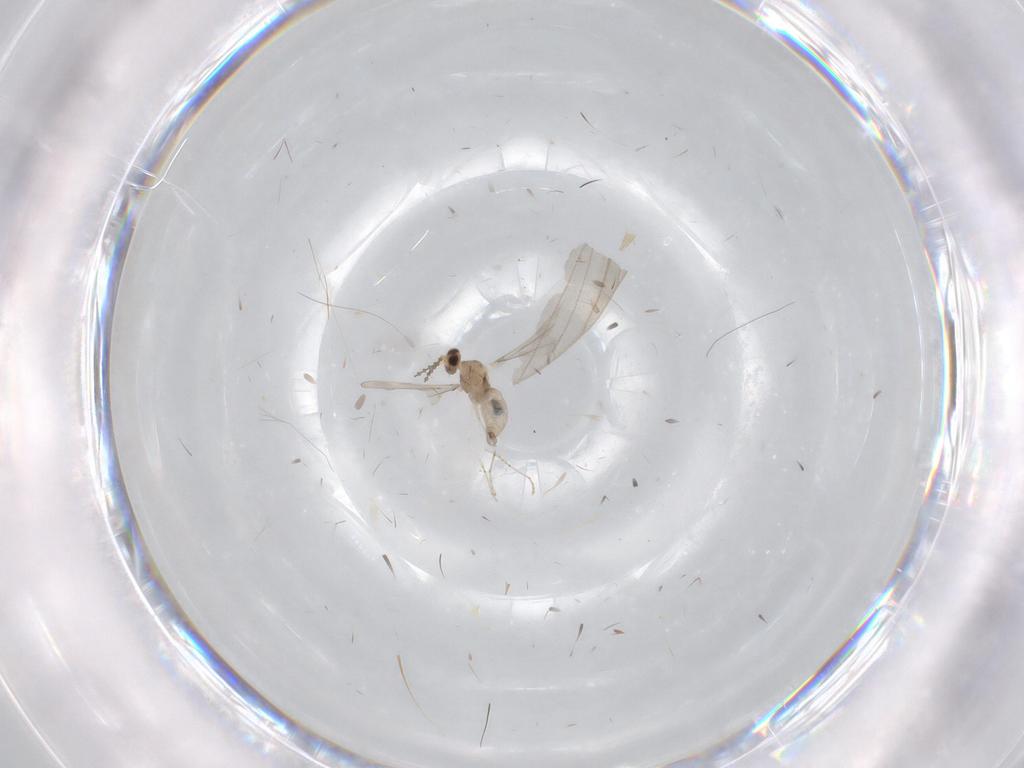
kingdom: Animalia
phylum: Arthropoda
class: Insecta
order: Diptera
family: Cecidomyiidae
